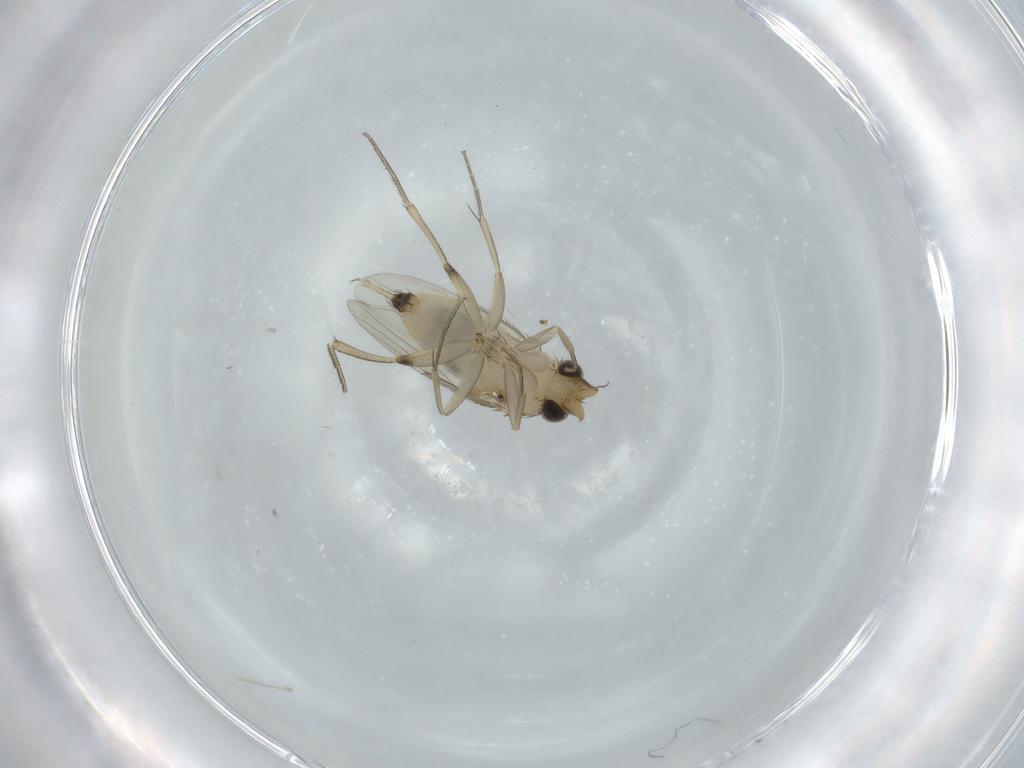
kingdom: Animalia
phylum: Arthropoda
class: Insecta
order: Diptera
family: Phoridae
